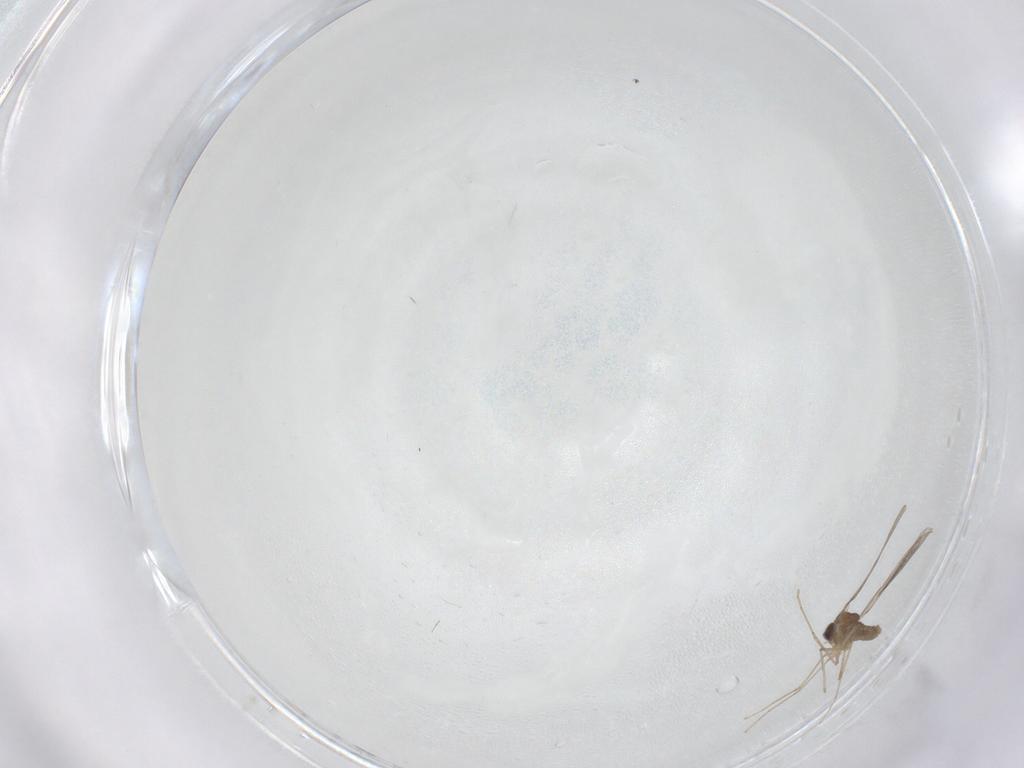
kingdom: Animalia
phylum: Arthropoda
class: Insecta
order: Diptera
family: Cecidomyiidae
